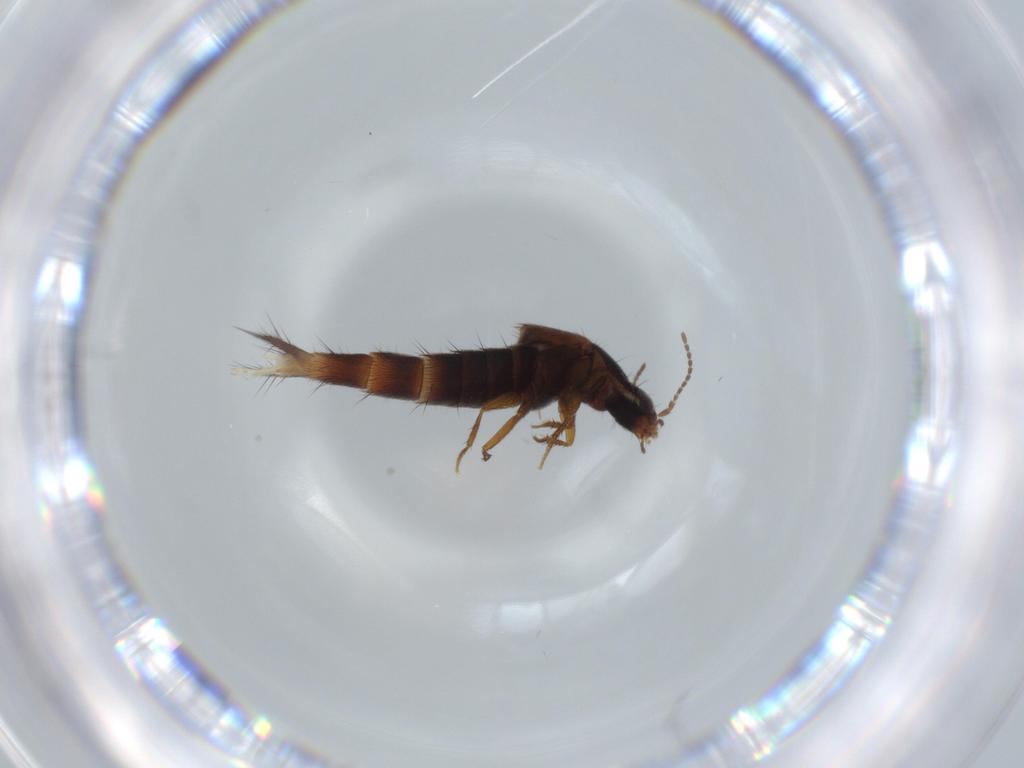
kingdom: Animalia
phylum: Arthropoda
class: Insecta
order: Coleoptera
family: Staphylinidae
